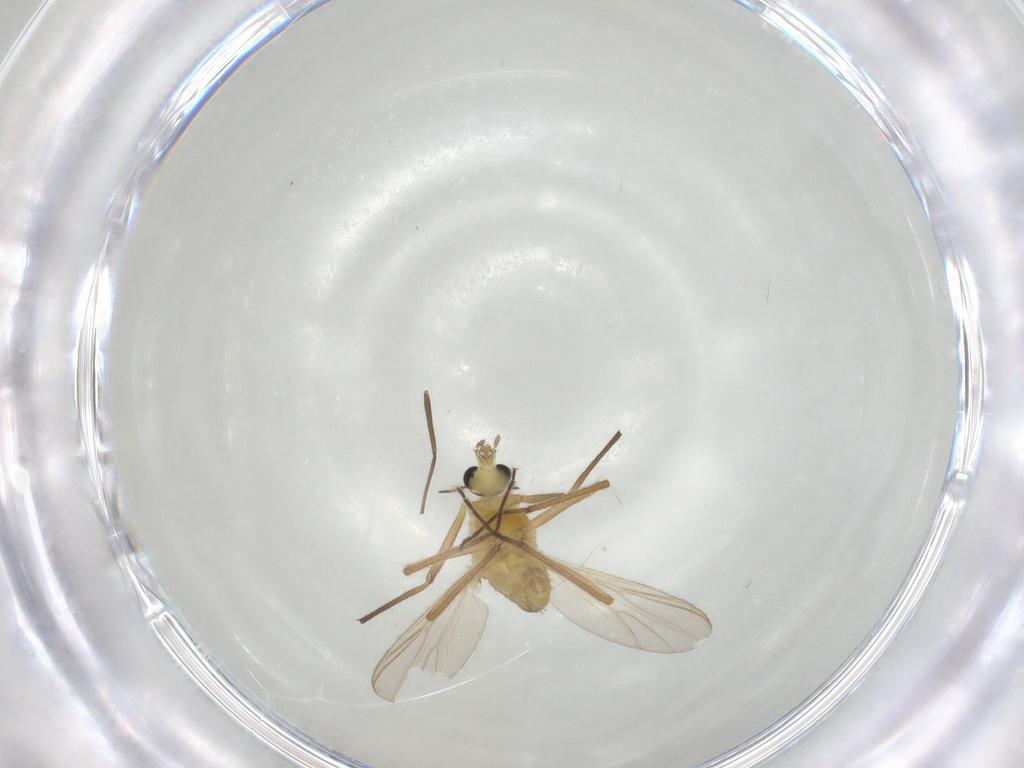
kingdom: Animalia
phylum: Arthropoda
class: Insecta
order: Diptera
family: Chironomidae
